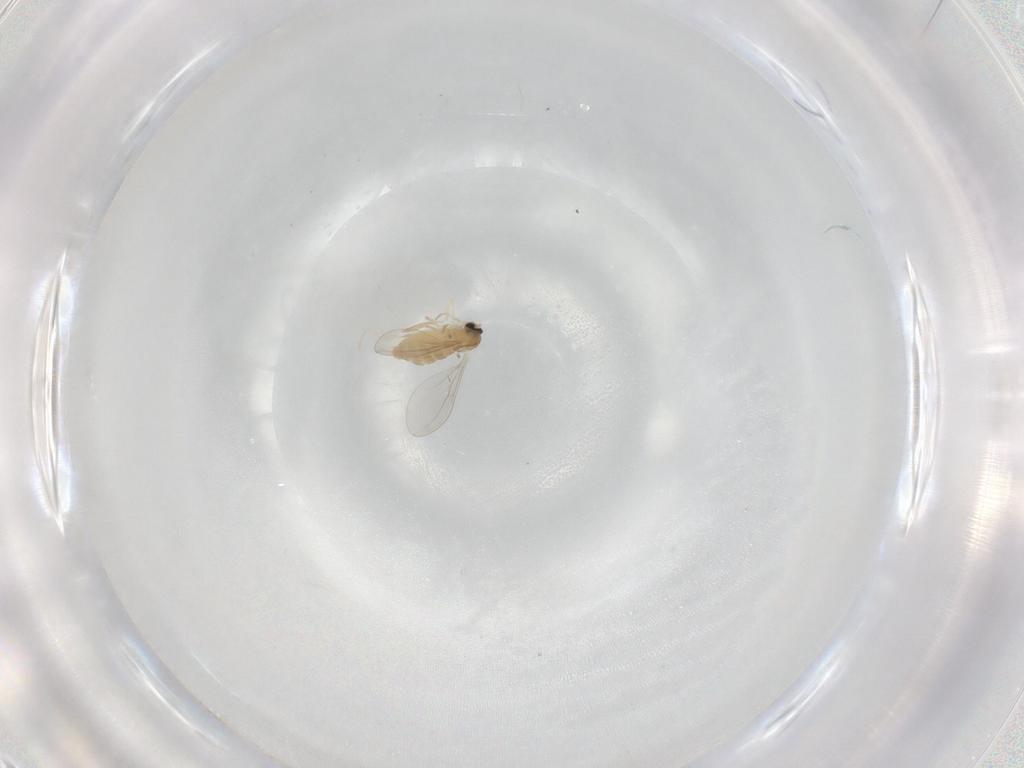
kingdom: Animalia
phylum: Arthropoda
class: Insecta
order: Diptera
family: Cecidomyiidae
